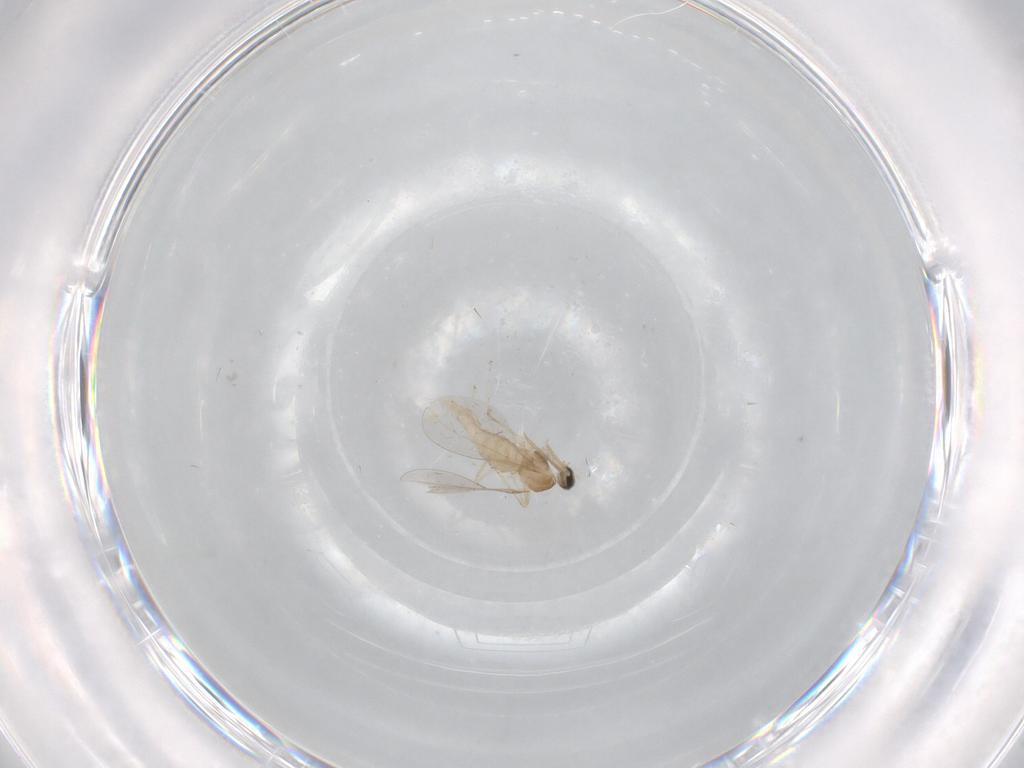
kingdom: Animalia
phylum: Arthropoda
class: Insecta
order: Diptera
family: Cecidomyiidae
